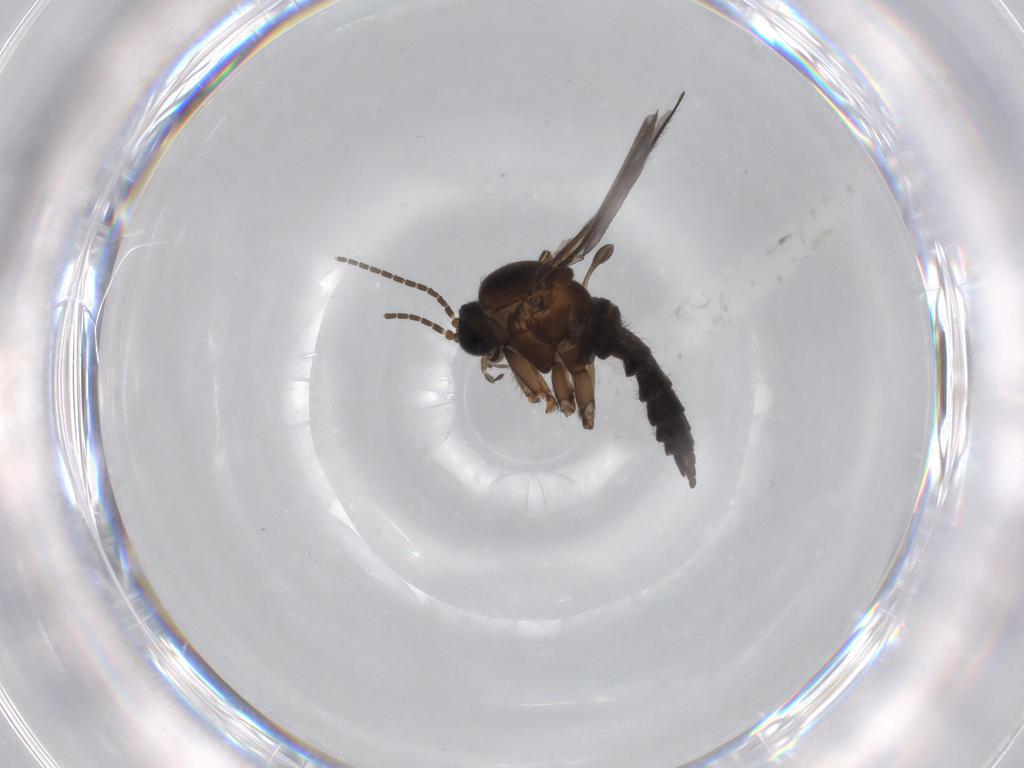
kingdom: Animalia
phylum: Arthropoda
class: Insecta
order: Diptera
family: Sciaridae
